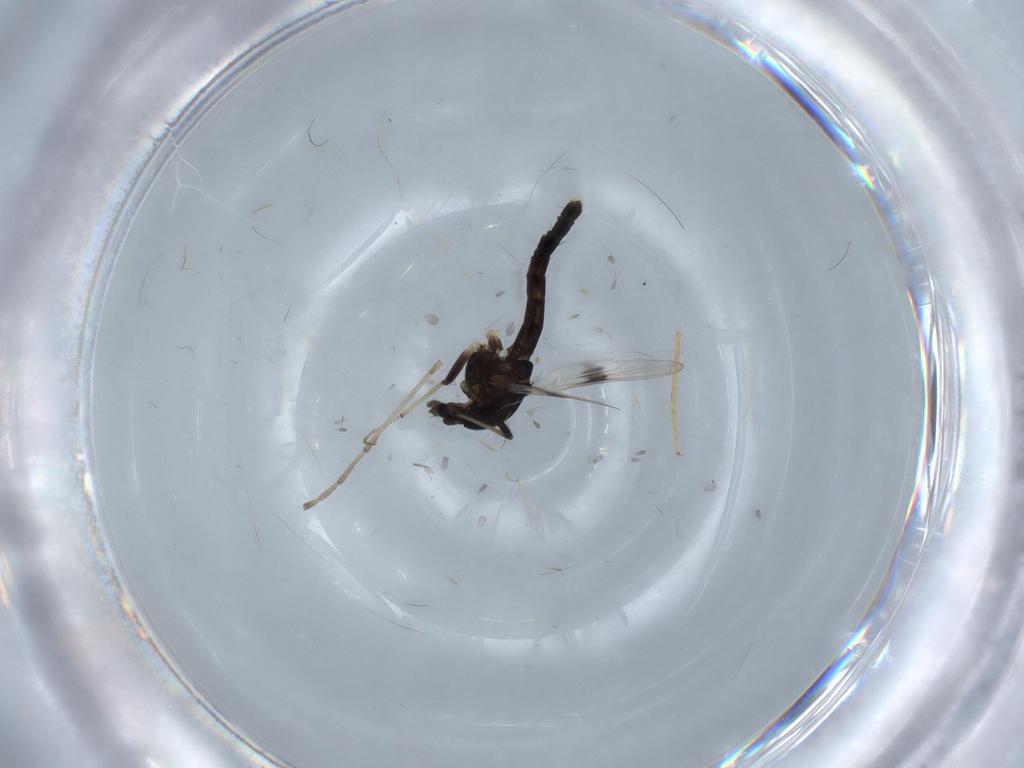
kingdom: Animalia
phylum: Arthropoda
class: Insecta
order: Diptera
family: Chironomidae
